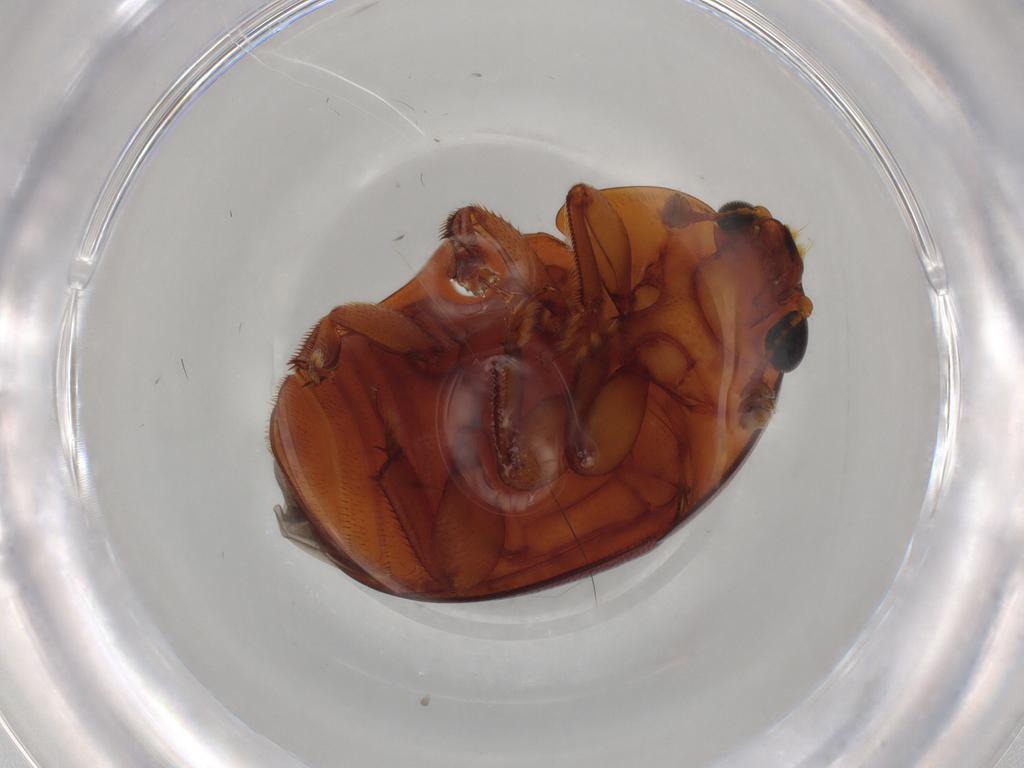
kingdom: Animalia
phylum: Arthropoda
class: Insecta
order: Coleoptera
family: Nitidulidae
